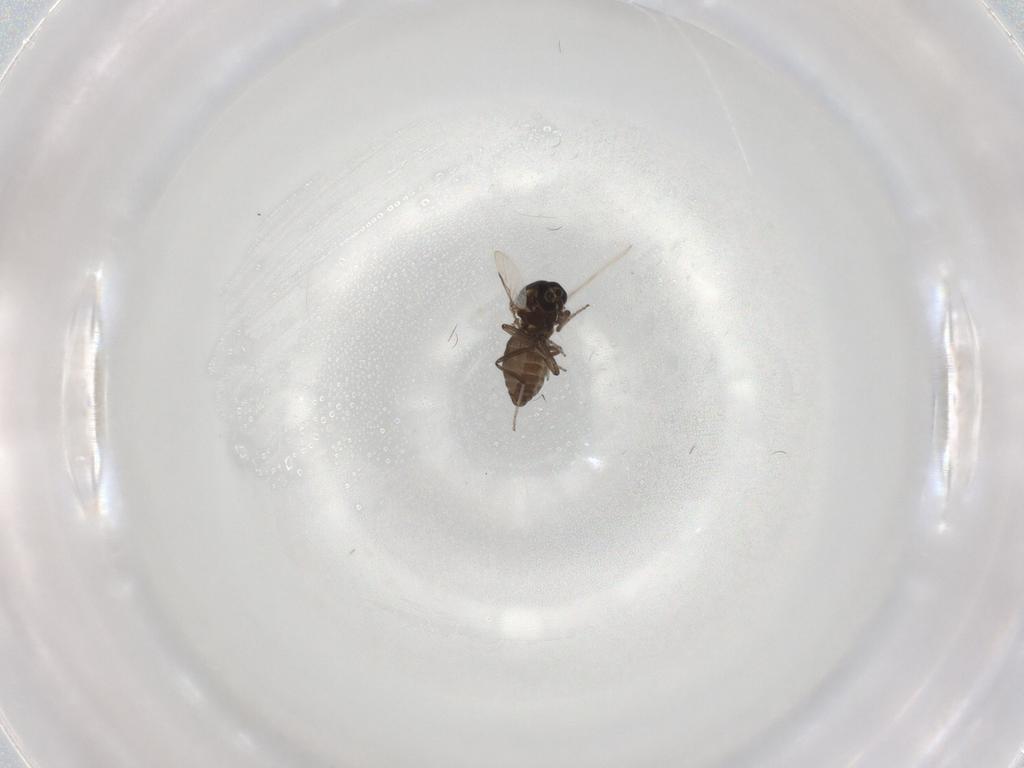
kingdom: Animalia
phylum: Arthropoda
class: Insecta
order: Diptera
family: Ceratopogonidae
